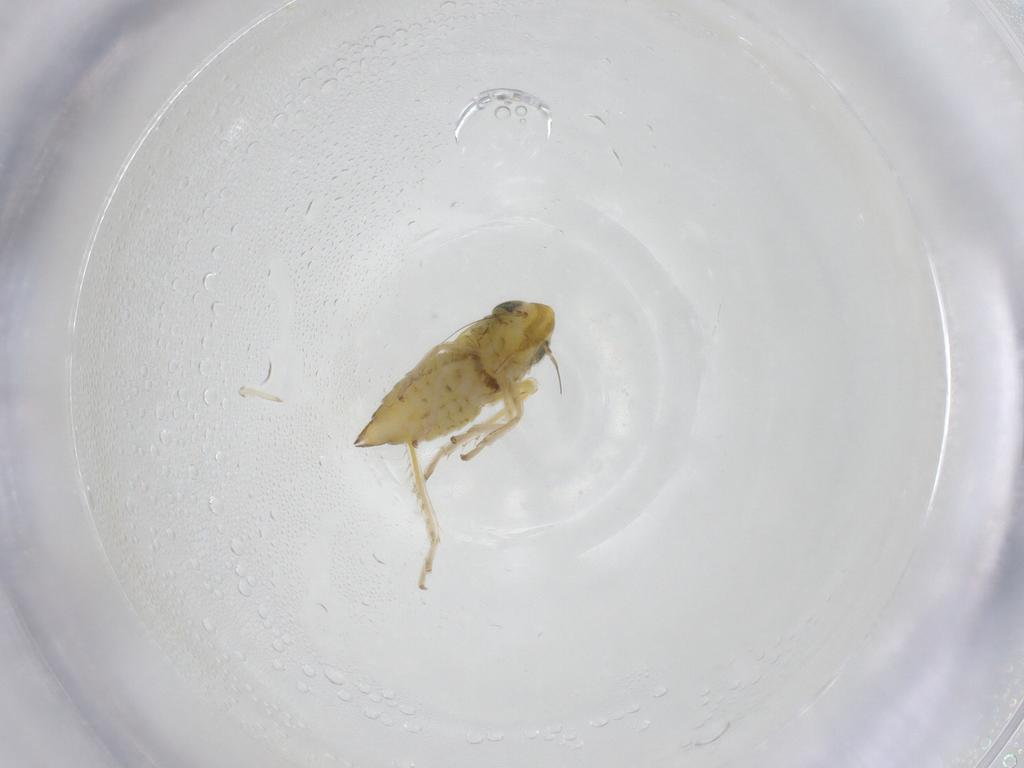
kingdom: Animalia
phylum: Arthropoda
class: Insecta
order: Hemiptera
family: Cicadellidae
